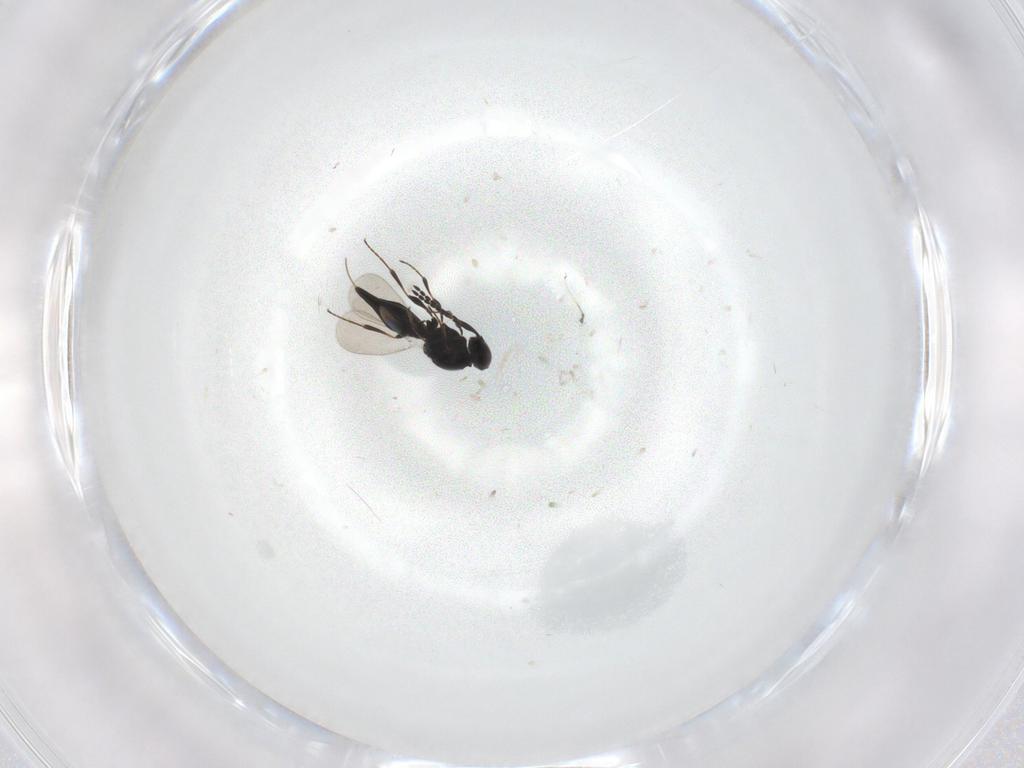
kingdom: Animalia
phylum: Arthropoda
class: Insecta
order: Hymenoptera
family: Platygastridae
